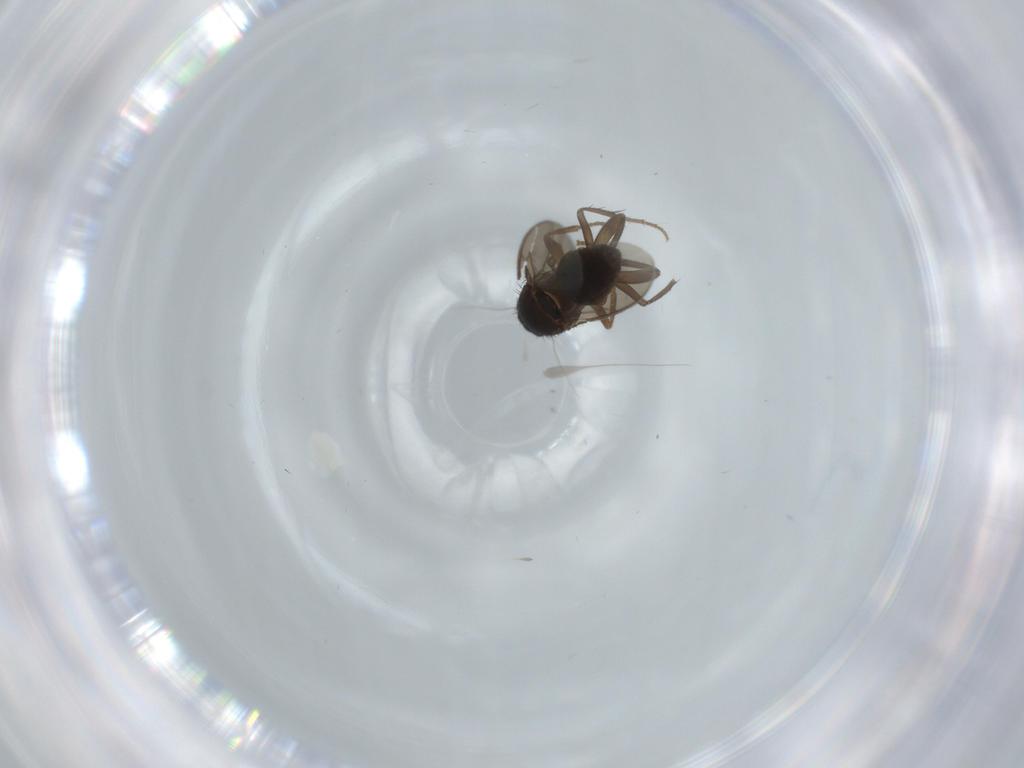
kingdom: Animalia
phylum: Arthropoda
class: Insecta
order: Diptera
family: Sphaeroceridae
